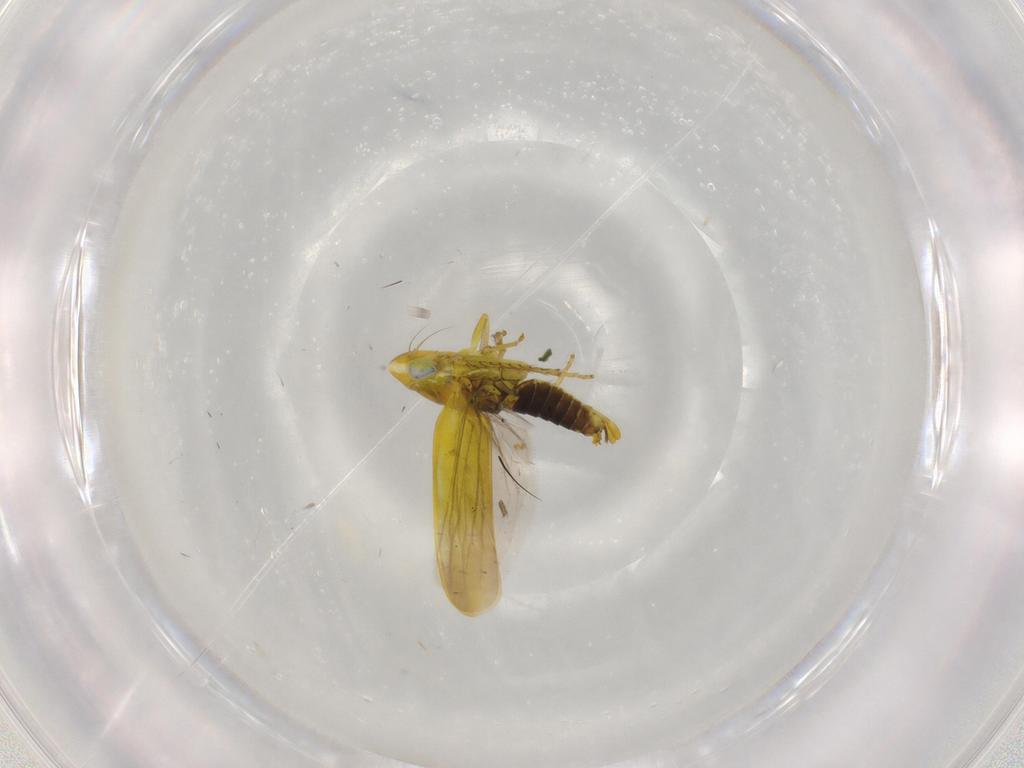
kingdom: Animalia
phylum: Arthropoda
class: Insecta
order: Hemiptera
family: Cicadellidae
